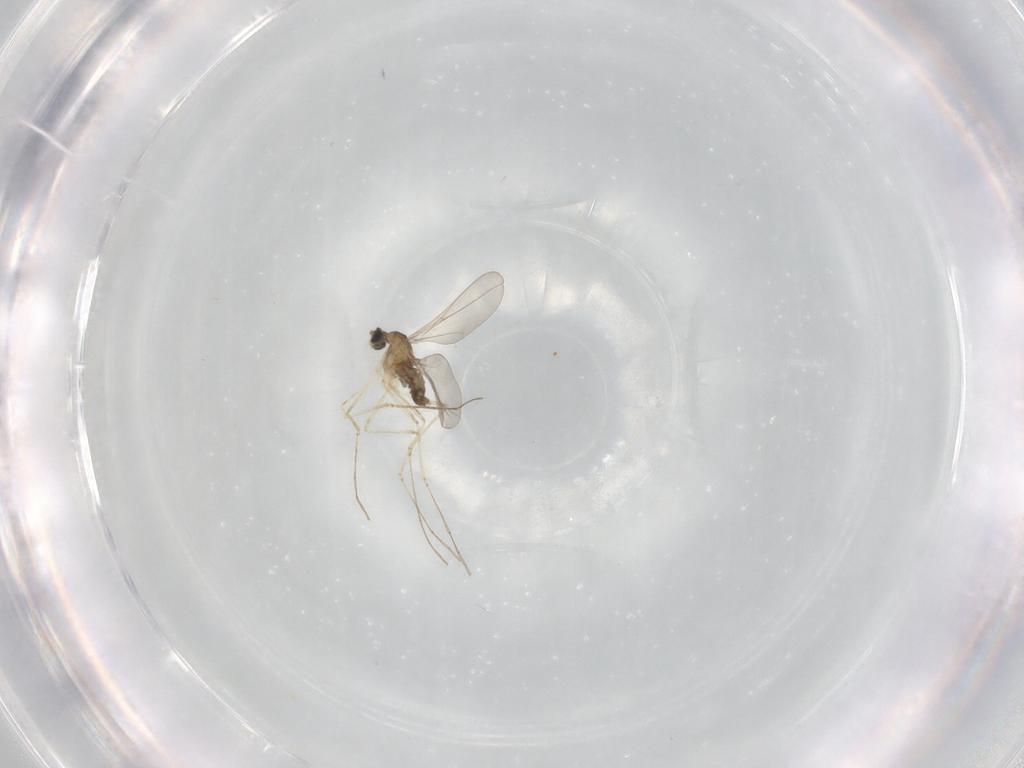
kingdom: Animalia
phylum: Arthropoda
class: Insecta
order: Diptera
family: Cecidomyiidae
